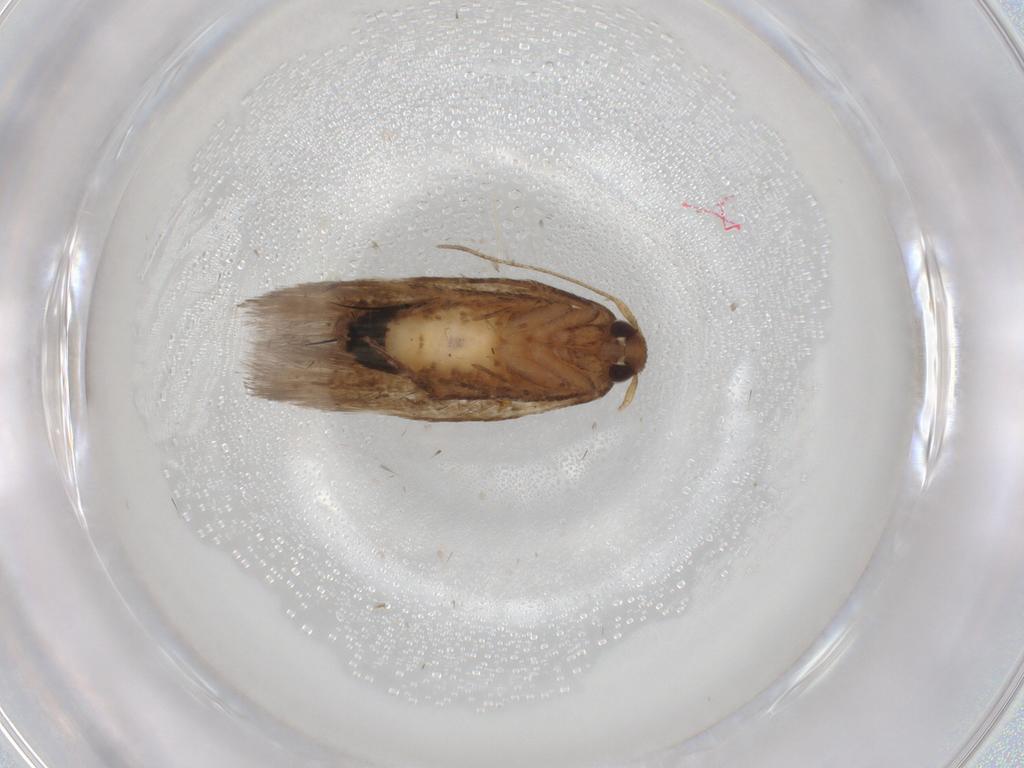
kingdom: Animalia
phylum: Arthropoda
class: Insecta
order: Lepidoptera
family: Cosmopterigidae
